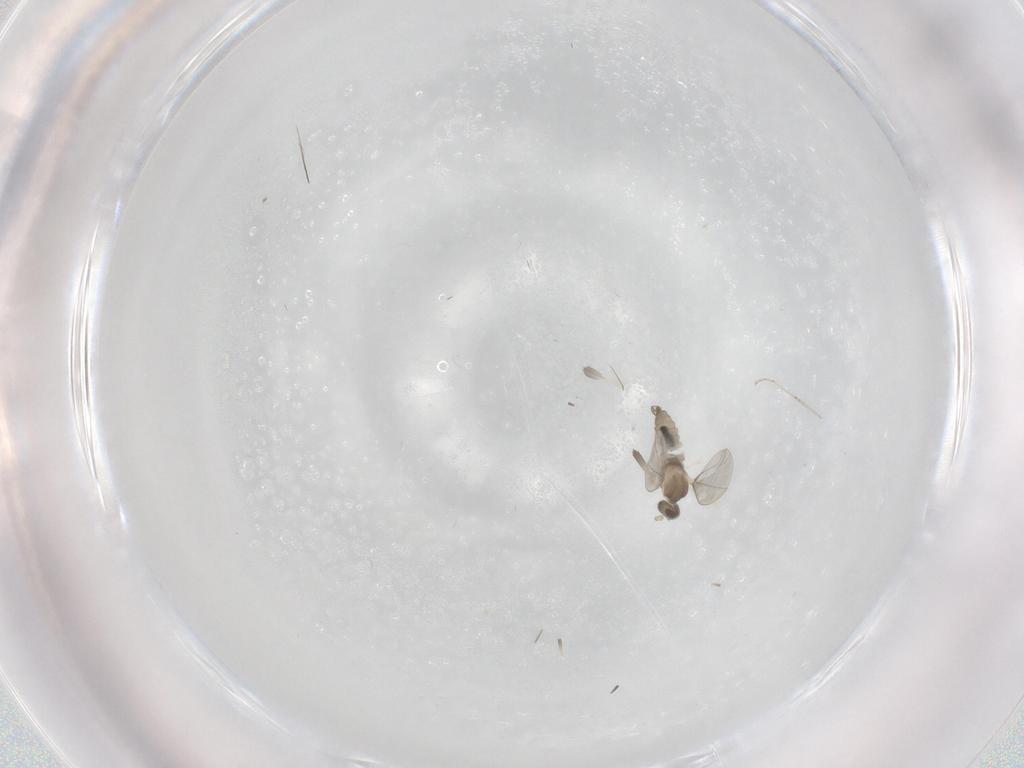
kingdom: Animalia
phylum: Arthropoda
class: Insecta
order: Diptera
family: Cecidomyiidae
